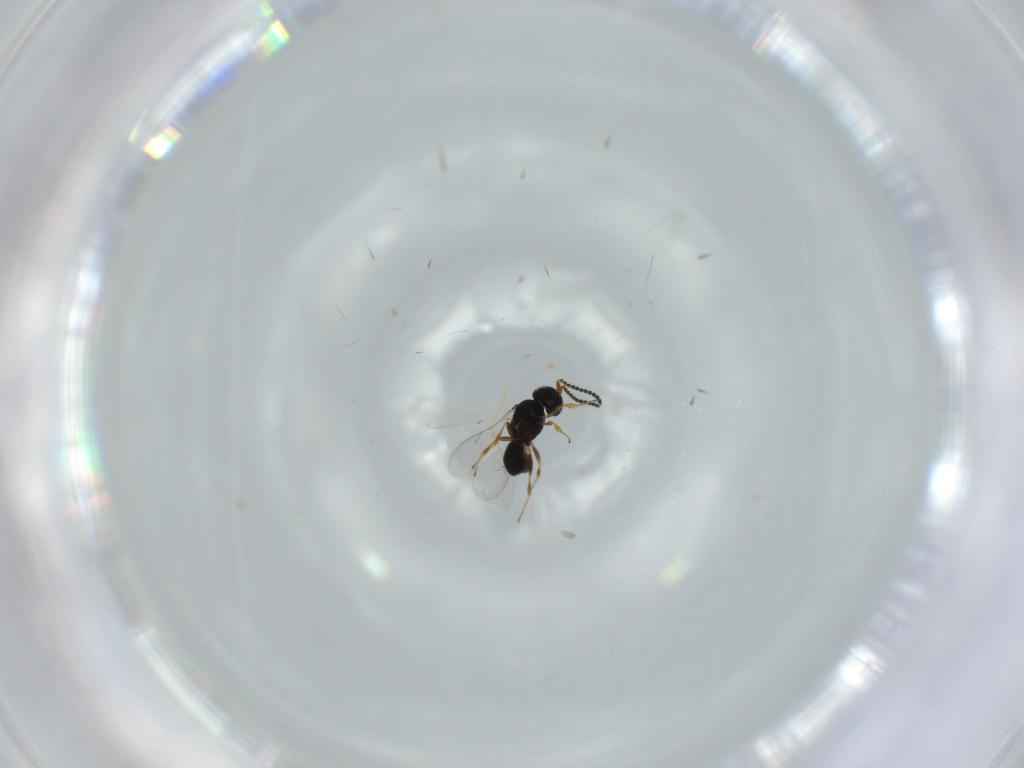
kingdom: Animalia
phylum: Arthropoda
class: Insecta
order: Hymenoptera
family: Scelionidae
